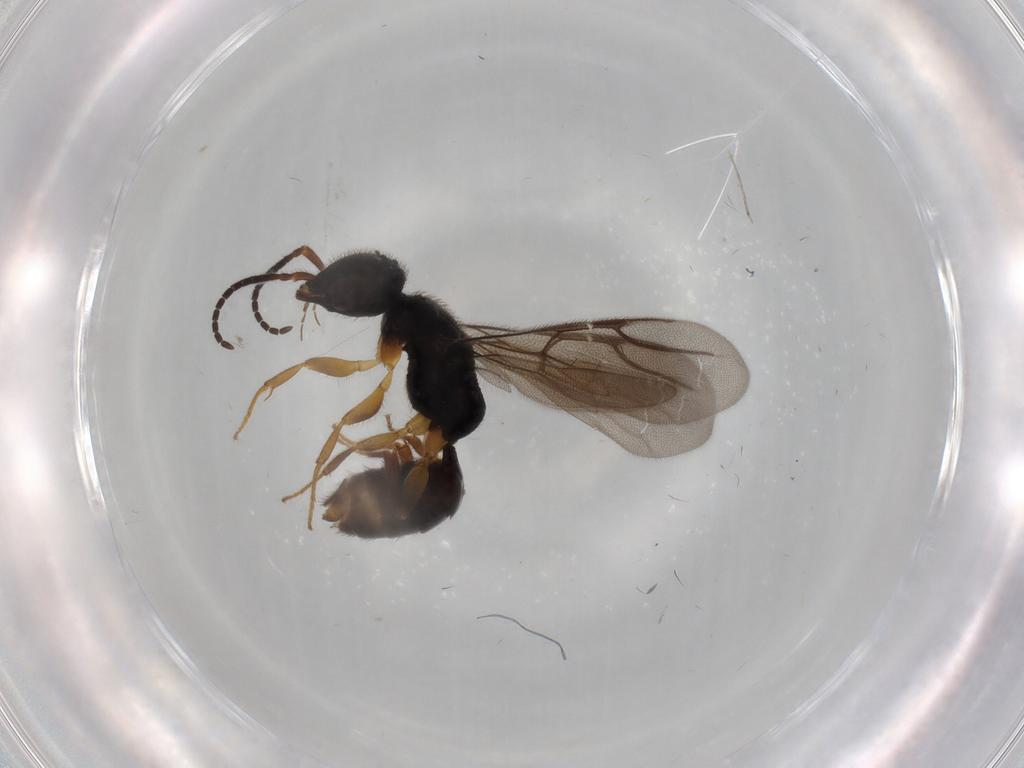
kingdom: Animalia
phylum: Arthropoda
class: Insecta
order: Hymenoptera
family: Bethylidae
